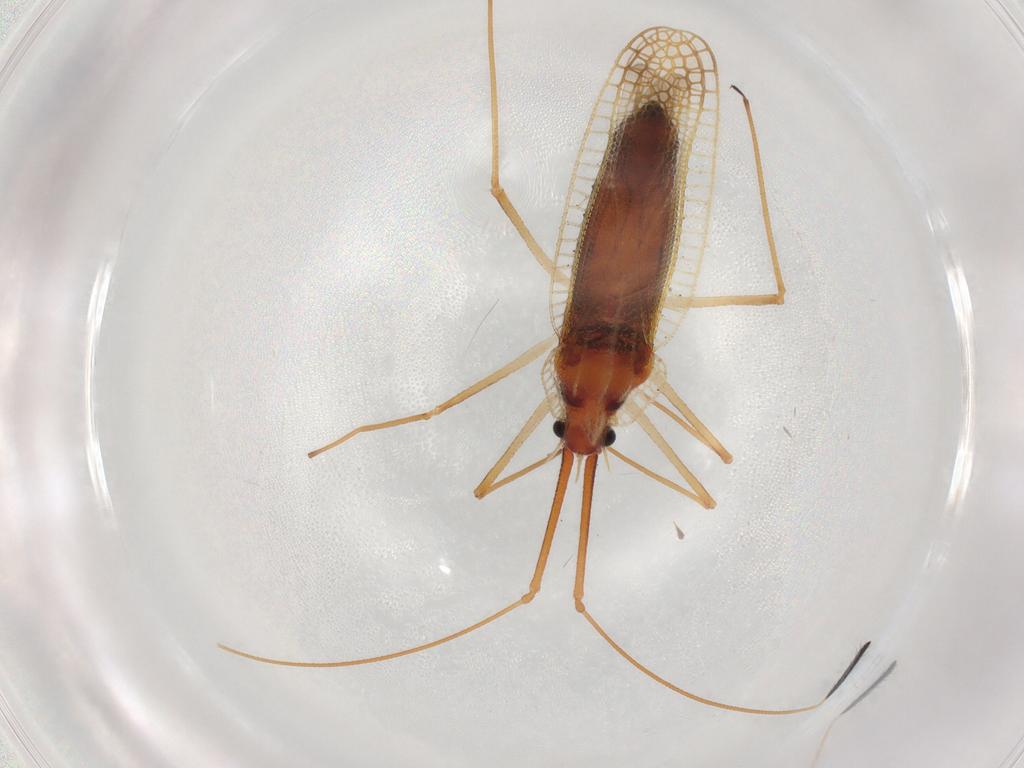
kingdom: Animalia
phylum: Arthropoda
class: Insecta
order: Hemiptera
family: Tingidae
